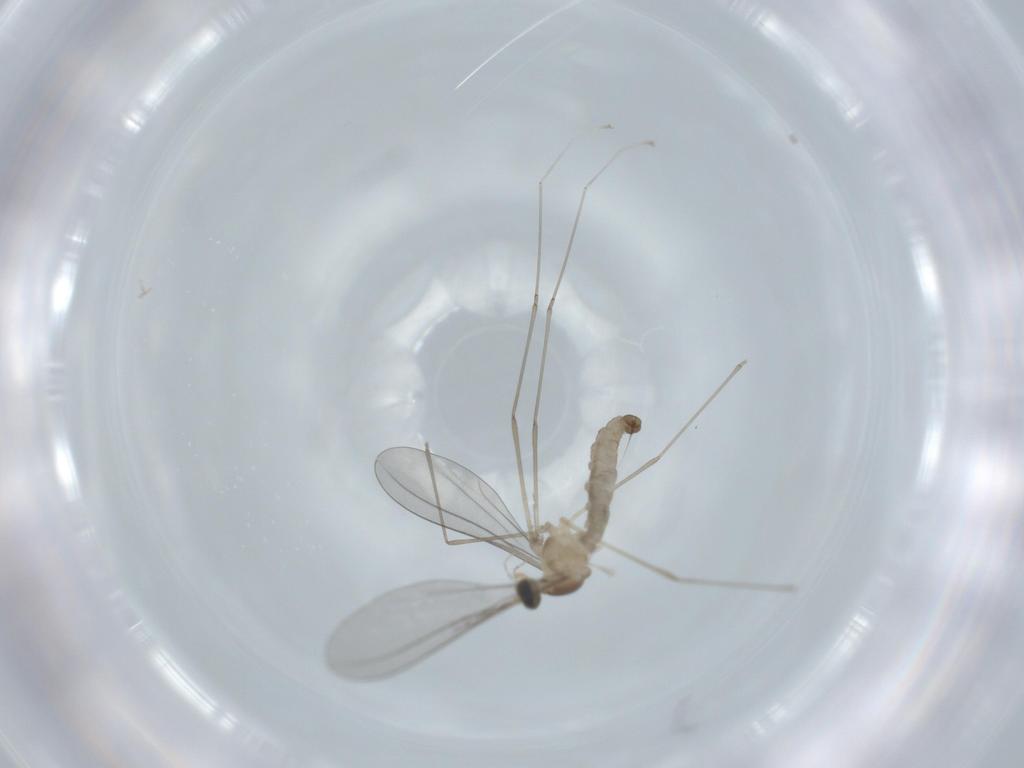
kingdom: Animalia
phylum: Arthropoda
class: Insecta
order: Diptera
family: Cecidomyiidae
